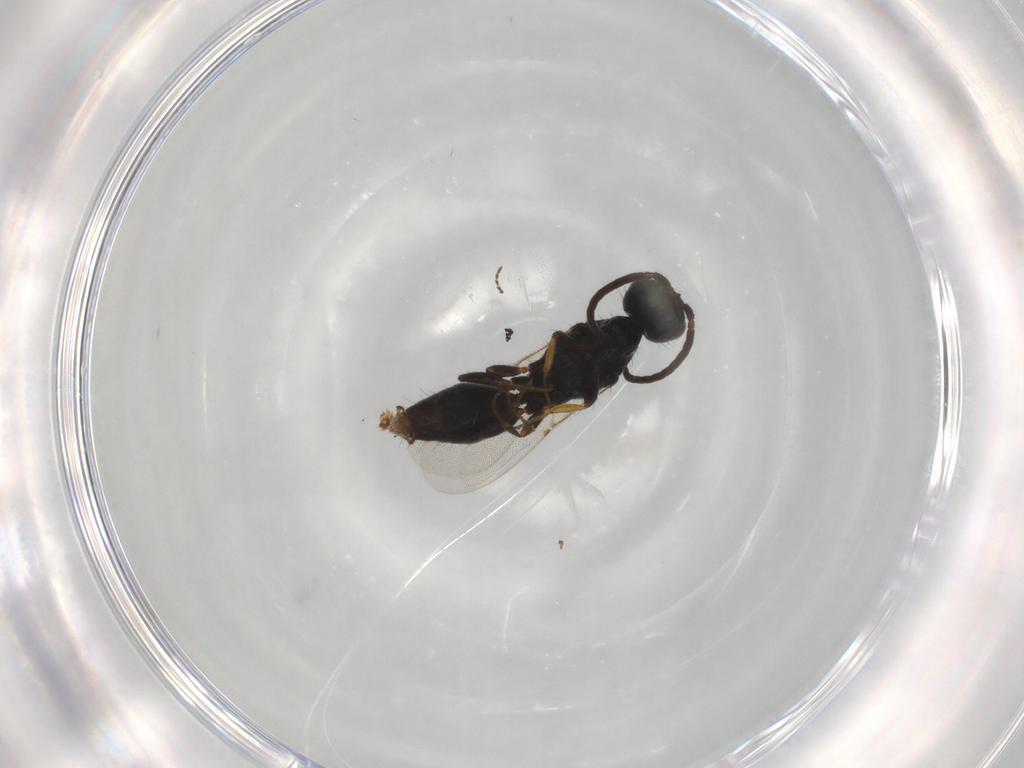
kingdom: Animalia
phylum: Arthropoda
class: Insecta
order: Hymenoptera
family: Bethylidae
